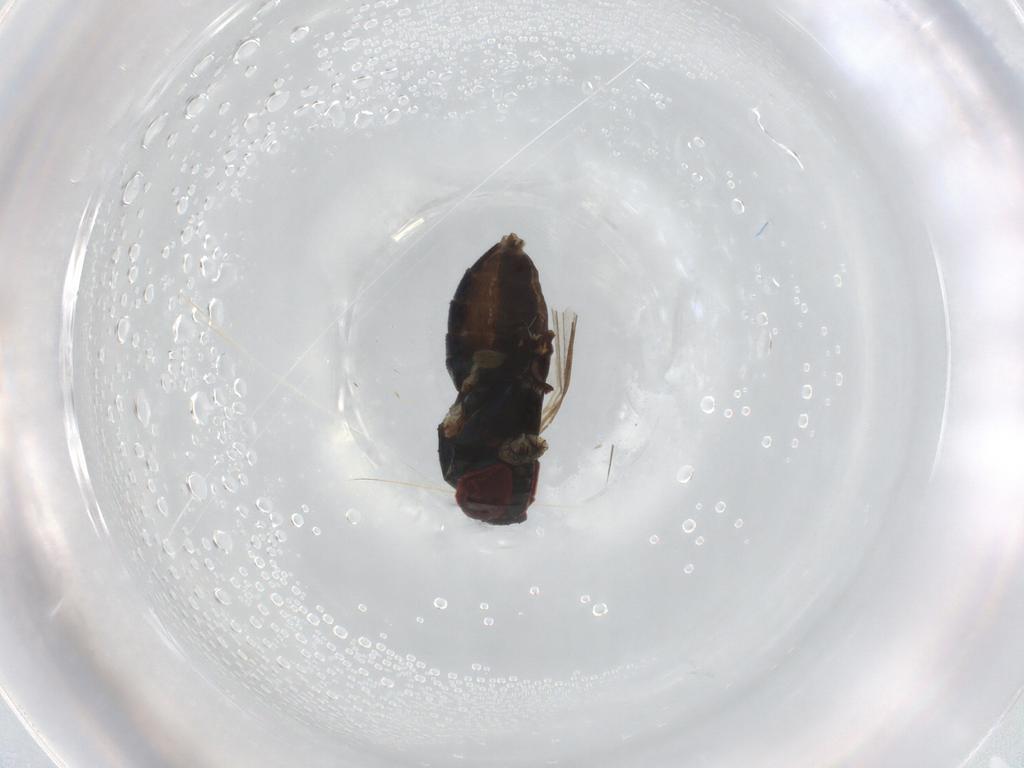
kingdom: Animalia
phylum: Arthropoda
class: Insecta
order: Diptera
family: Dolichopodidae
